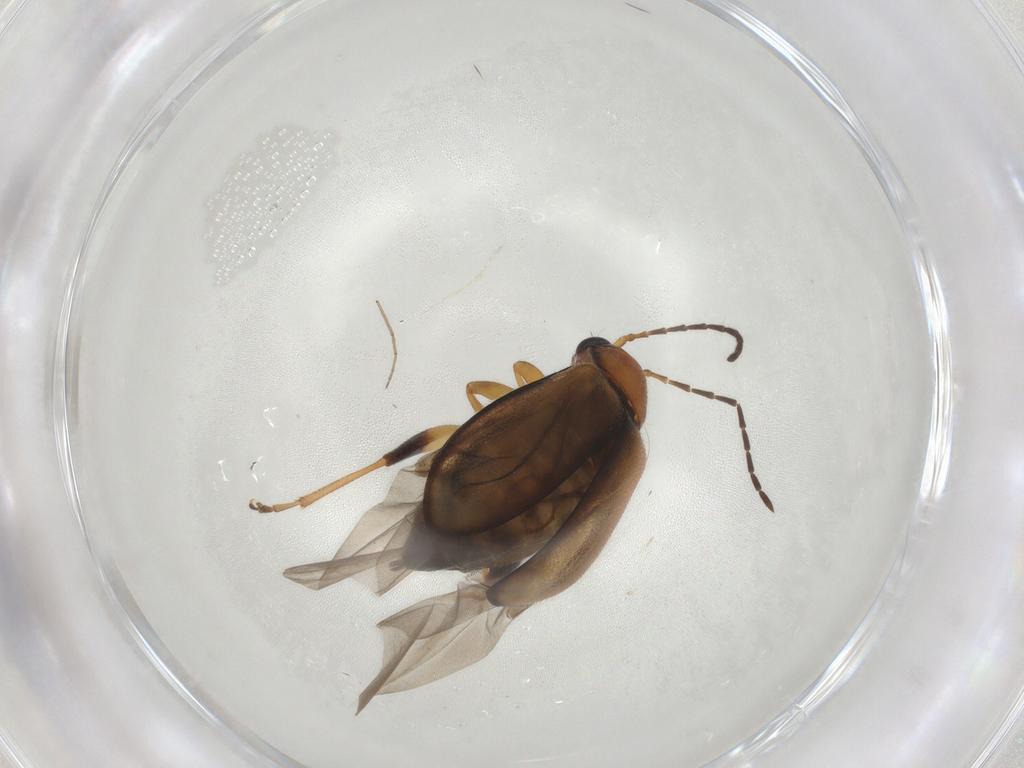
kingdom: Animalia
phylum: Arthropoda
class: Insecta
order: Coleoptera
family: Chrysomelidae
